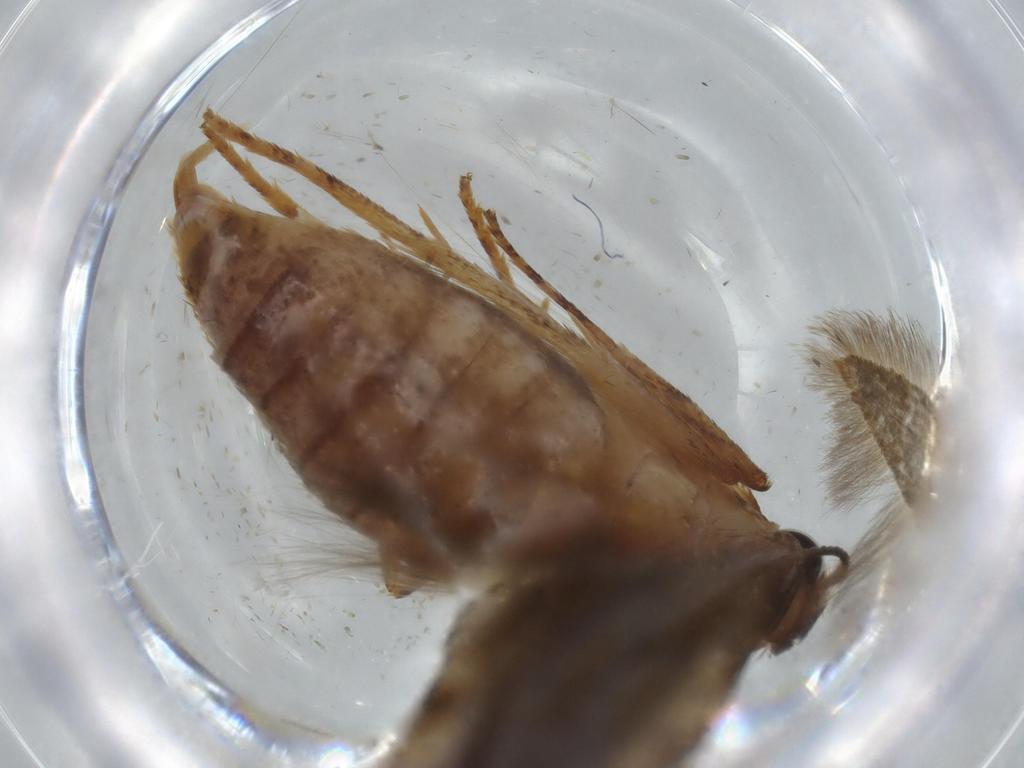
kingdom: Animalia
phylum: Arthropoda
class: Insecta
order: Lepidoptera
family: Blastobasidae
